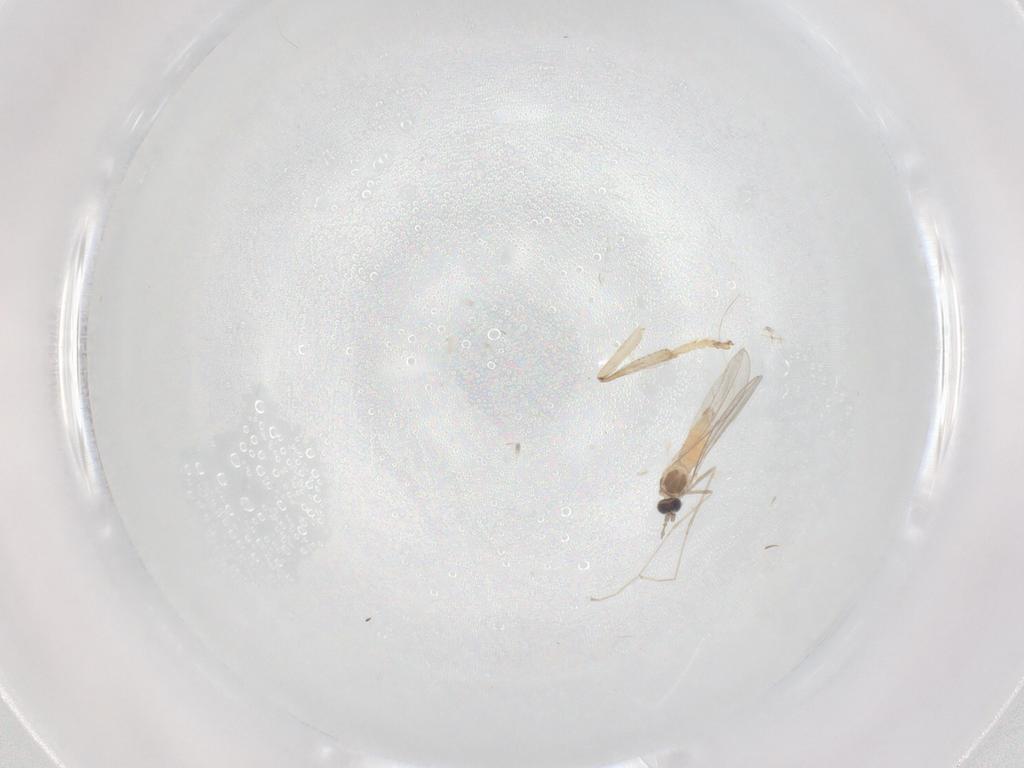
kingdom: Animalia
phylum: Arthropoda
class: Insecta
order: Diptera
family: Cecidomyiidae
